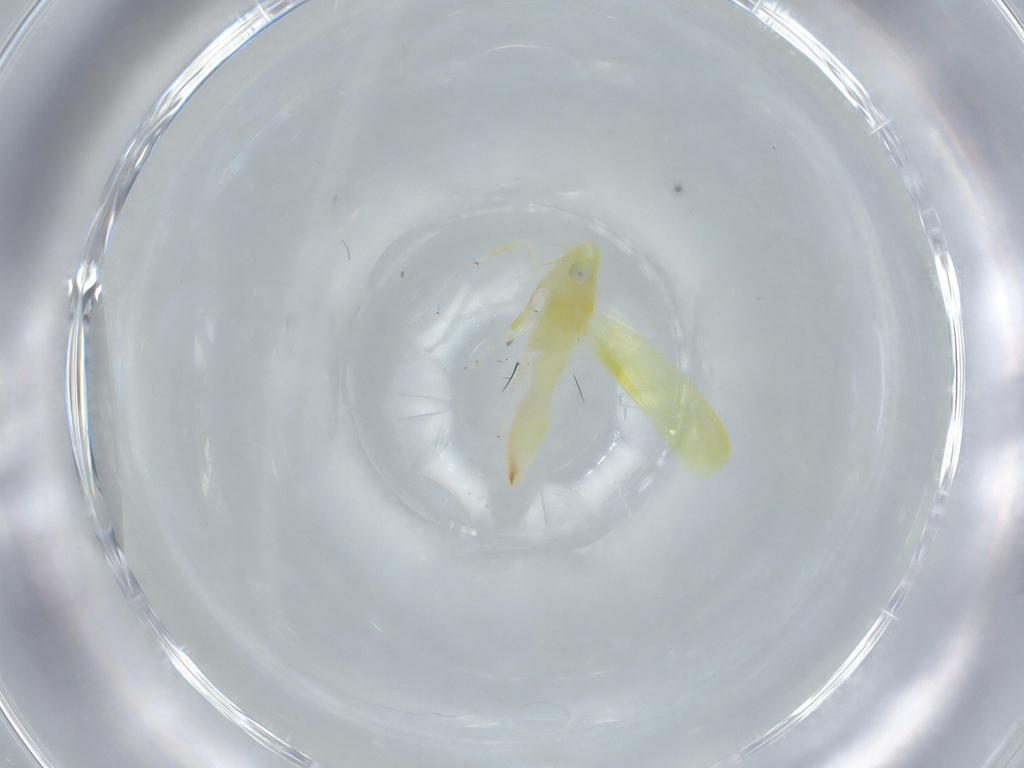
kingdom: Animalia
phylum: Arthropoda
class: Insecta
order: Hemiptera
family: Cicadellidae
